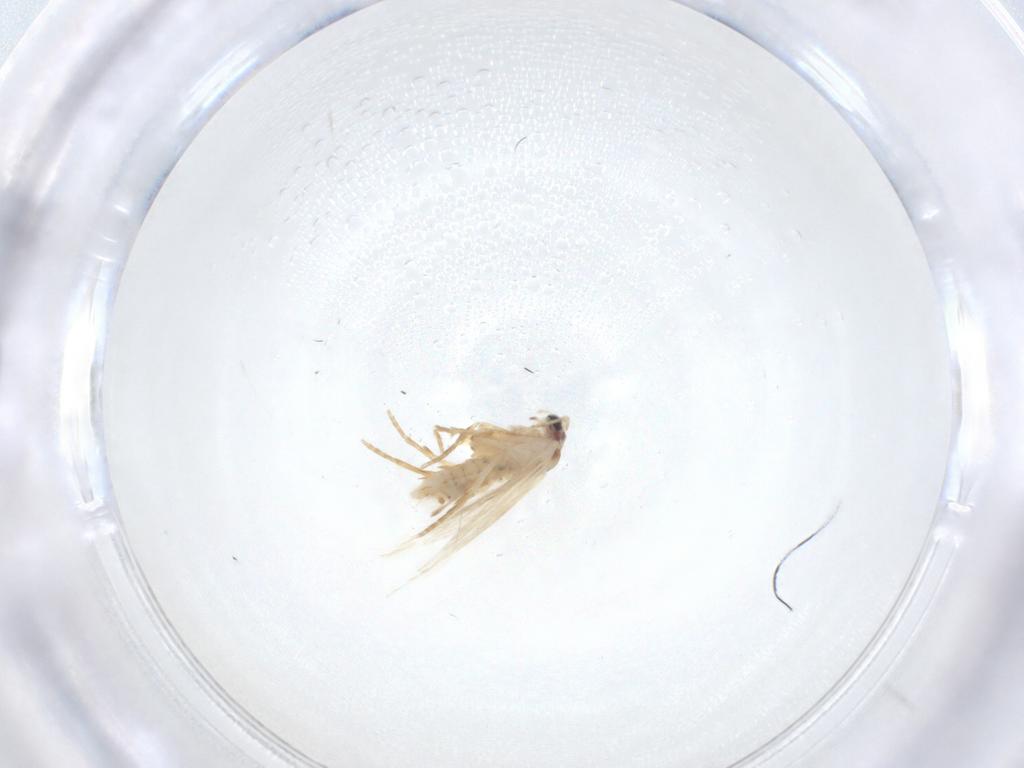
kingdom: Animalia
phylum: Arthropoda
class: Insecta
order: Lepidoptera
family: Nepticulidae
